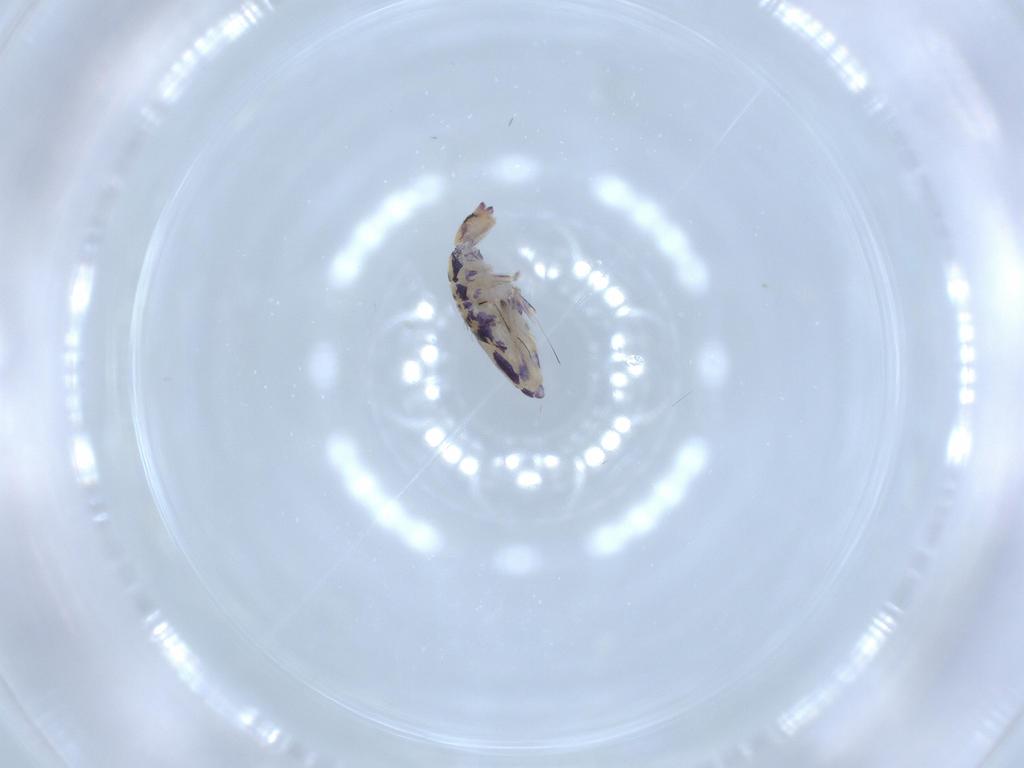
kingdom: Animalia
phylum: Arthropoda
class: Collembola
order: Entomobryomorpha
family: Entomobryidae
